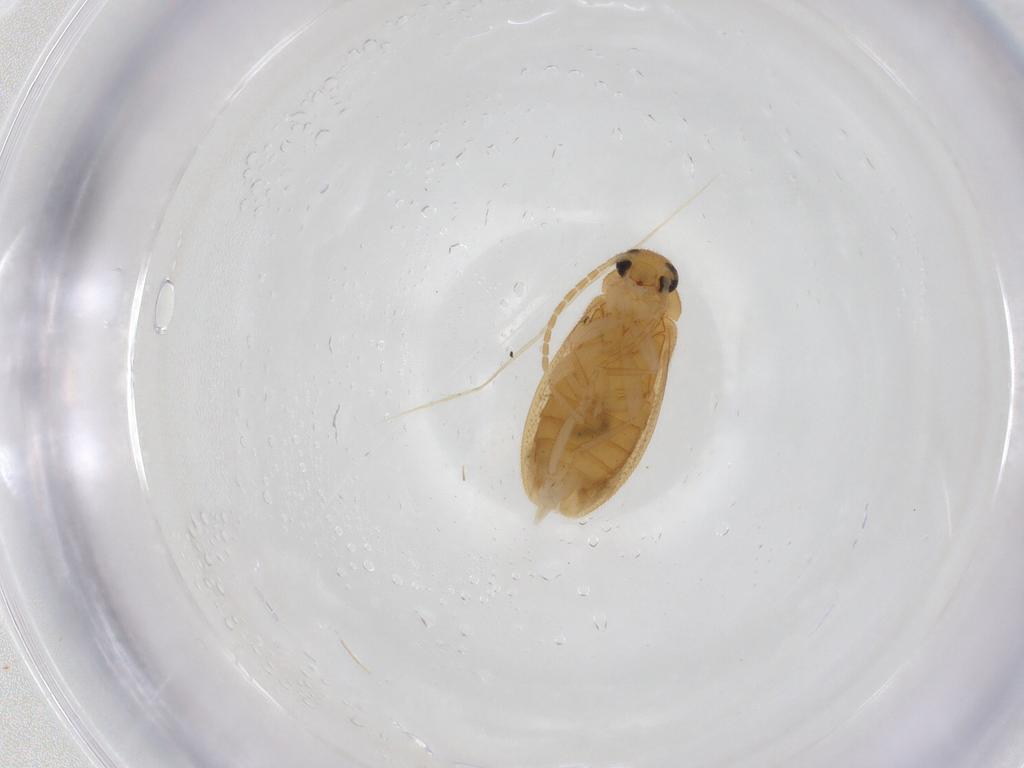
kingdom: Animalia
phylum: Arthropoda
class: Insecta
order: Coleoptera
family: Scraptiidae
